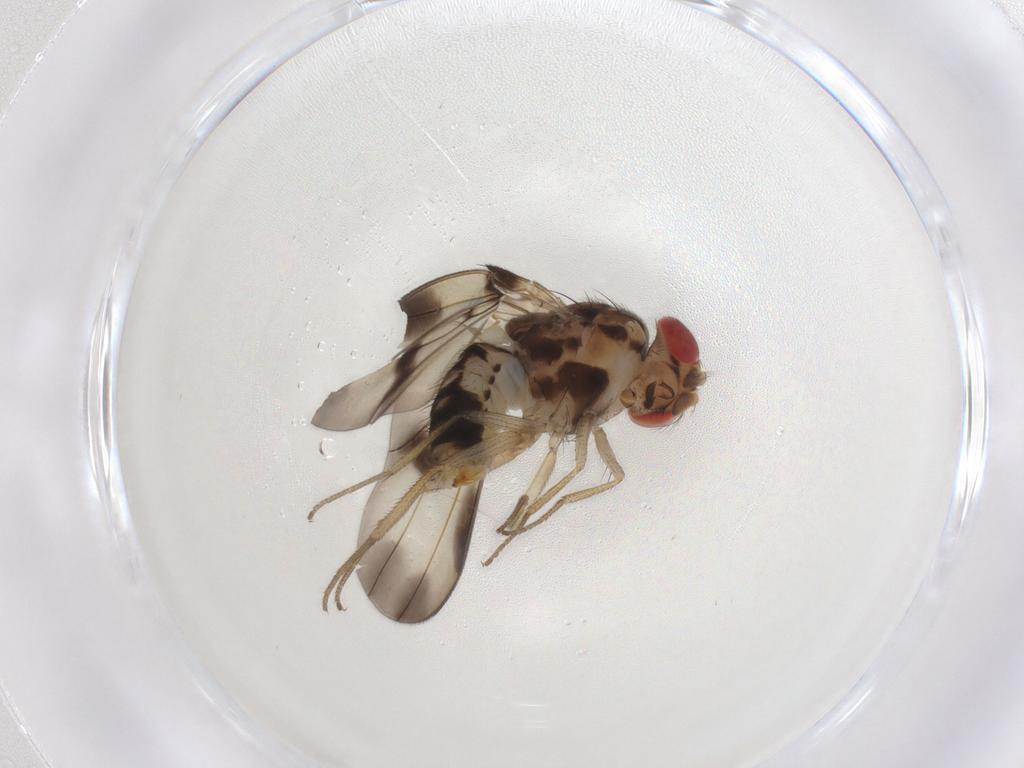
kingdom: Animalia
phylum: Arthropoda
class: Insecta
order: Diptera
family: Drosophilidae
